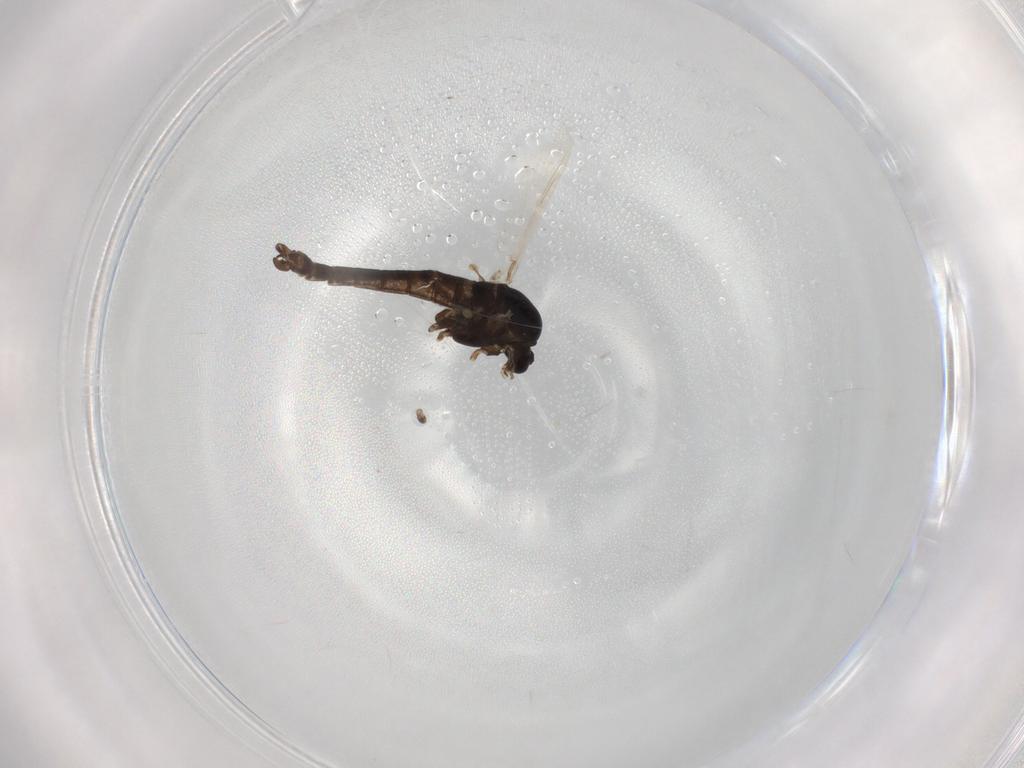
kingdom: Animalia
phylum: Arthropoda
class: Insecta
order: Diptera
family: Chironomidae
